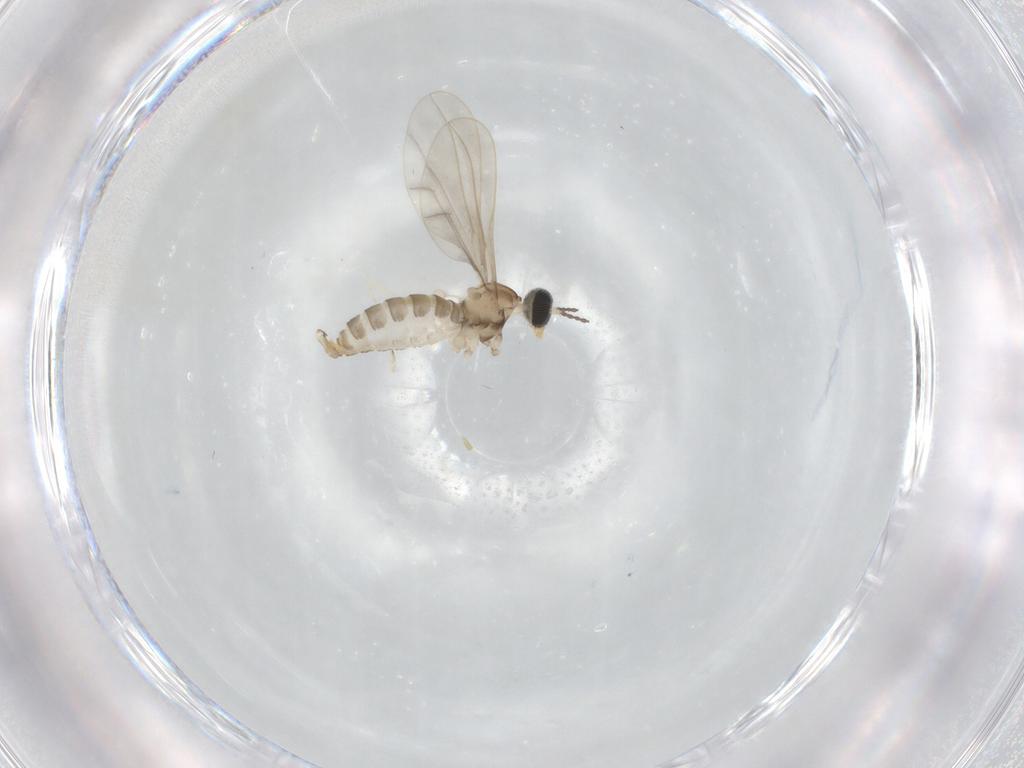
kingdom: Animalia
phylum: Arthropoda
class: Insecta
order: Diptera
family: Cecidomyiidae
